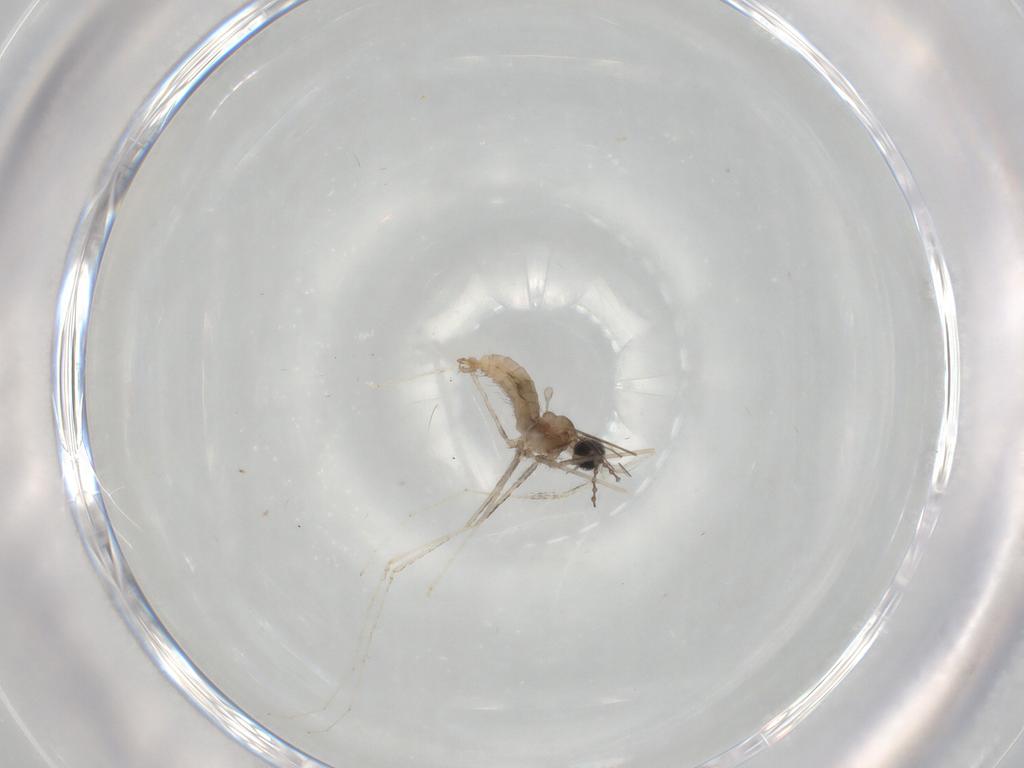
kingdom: Animalia
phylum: Arthropoda
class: Insecta
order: Diptera
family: Cecidomyiidae
